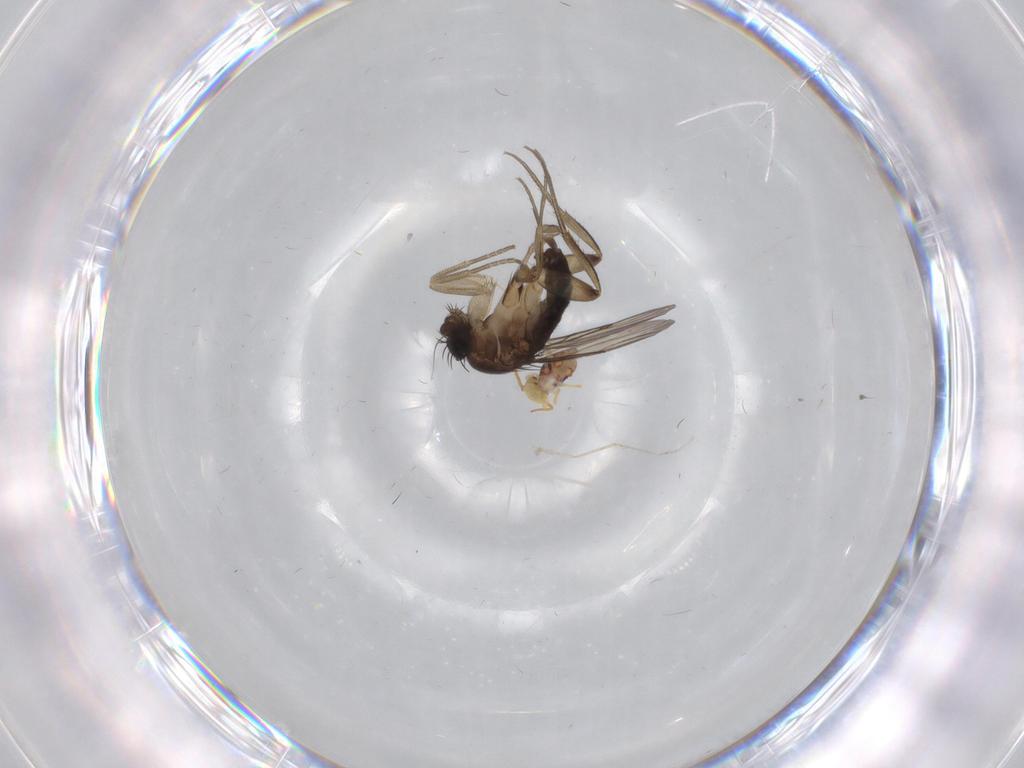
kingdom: Animalia
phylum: Arthropoda
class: Insecta
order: Diptera
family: Phoridae
